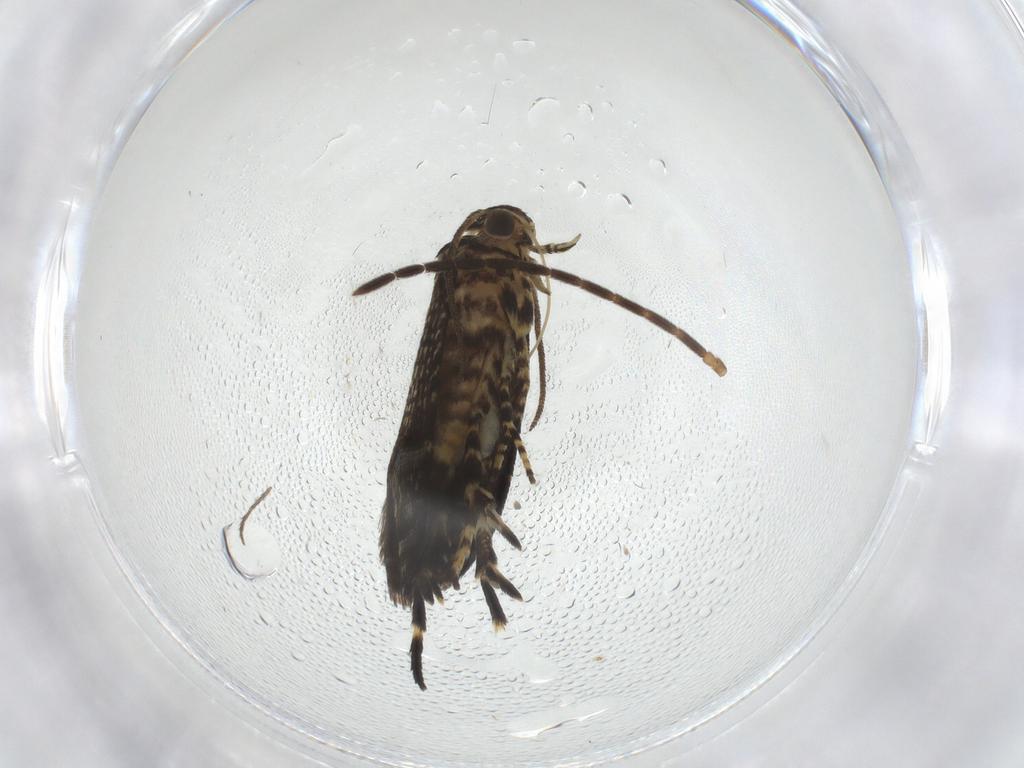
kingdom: Animalia
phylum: Arthropoda
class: Insecta
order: Lepidoptera
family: Geometridae
